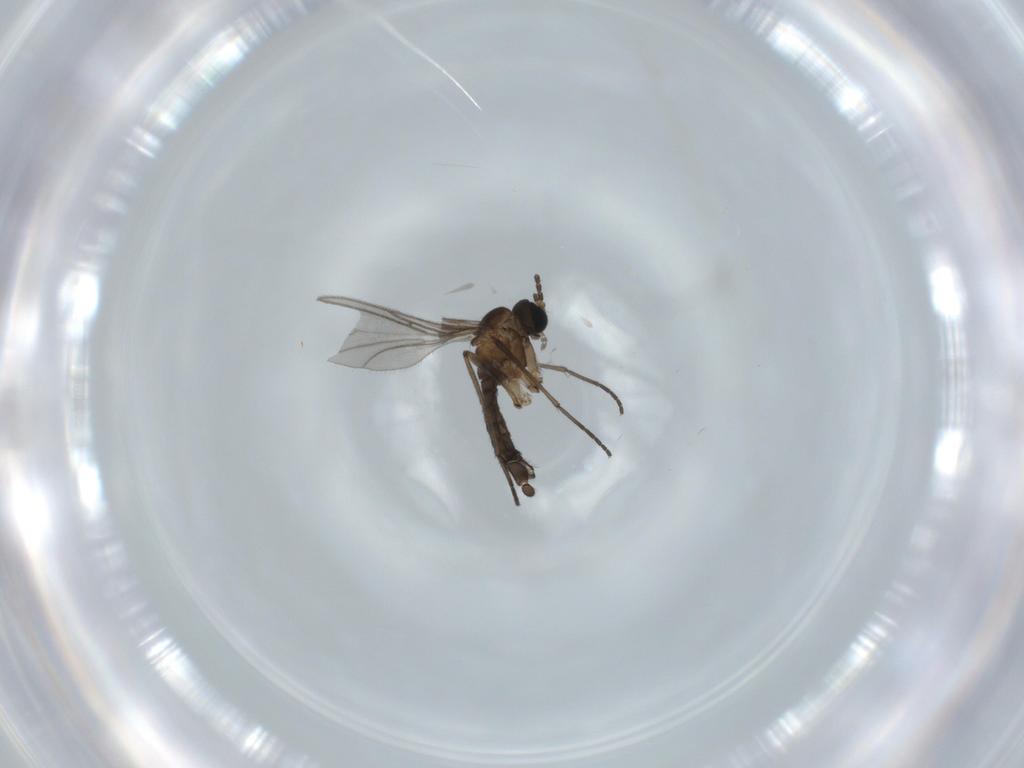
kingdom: Animalia
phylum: Arthropoda
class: Insecta
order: Diptera
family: Sciaridae
